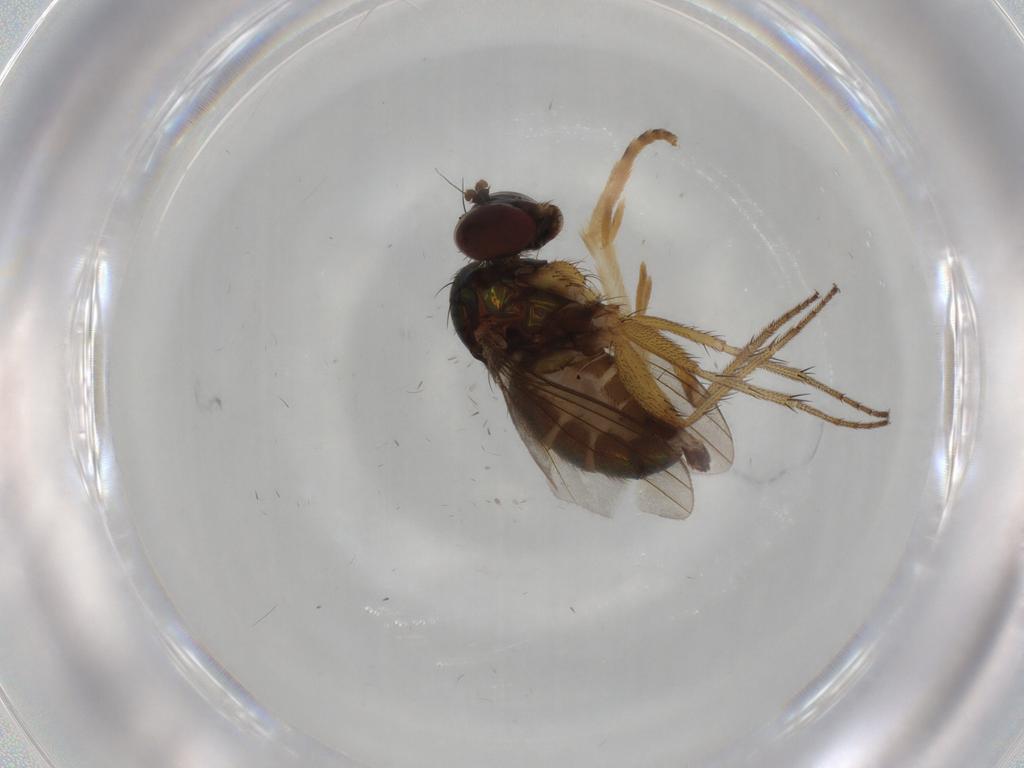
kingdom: Animalia
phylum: Arthropoda
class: Insecta
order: Diptera
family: Dolichopodidae
